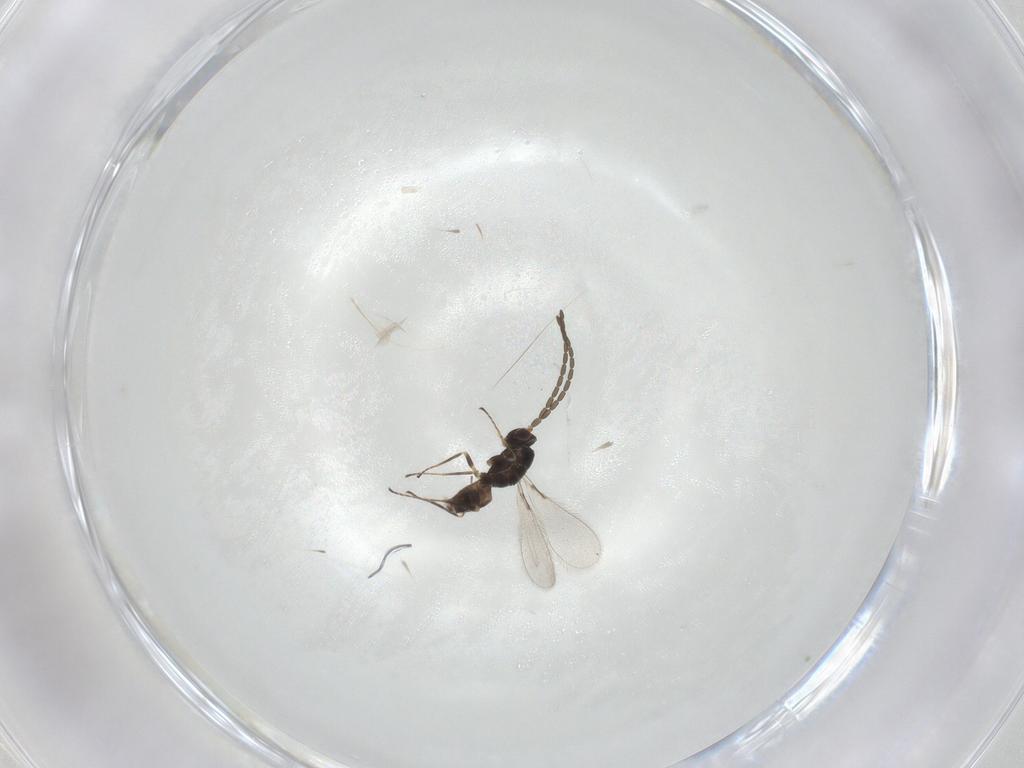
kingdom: Animalia
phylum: Arthropoda
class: Insecta
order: Hymenoptera
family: Mymaridae
